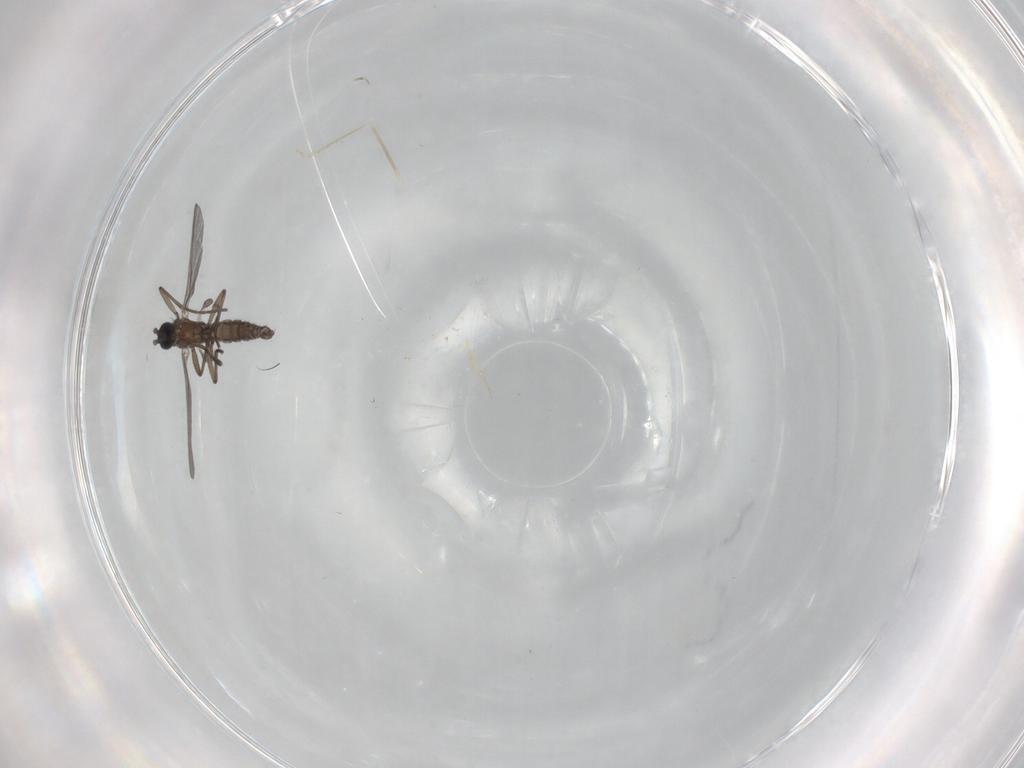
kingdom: Animalia
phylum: Arthropoda
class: Insecta
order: Diptera
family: Sciaridae
